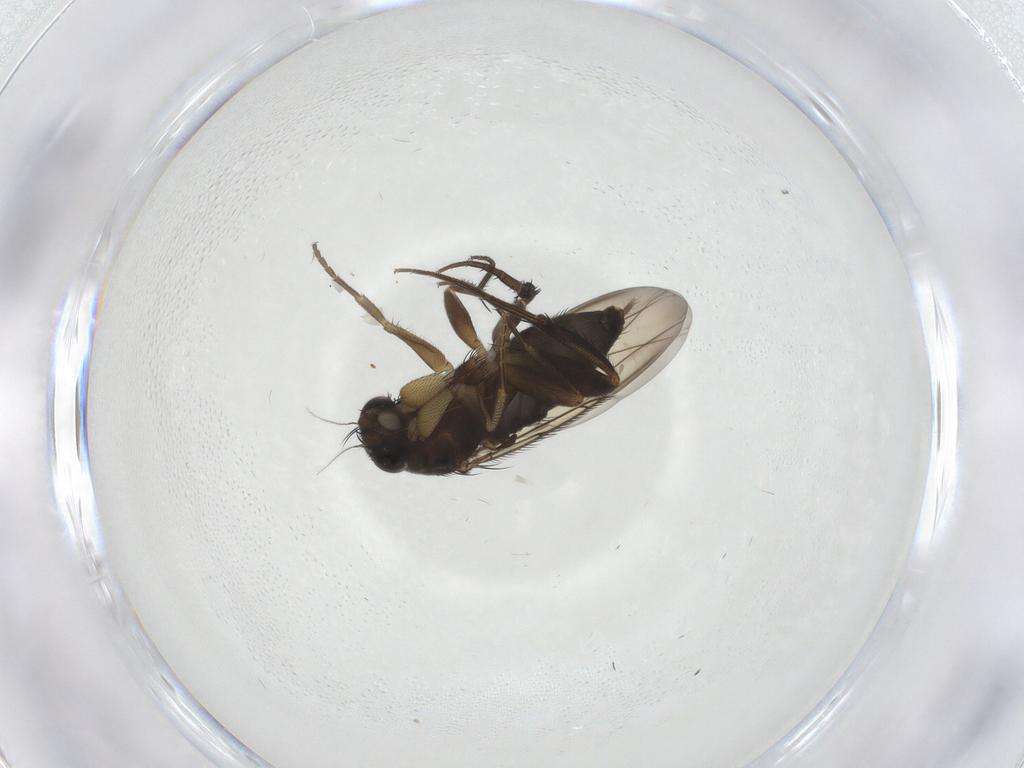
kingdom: Animalia
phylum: Arthropoda
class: Insecta
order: Diptera
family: Phoridae
